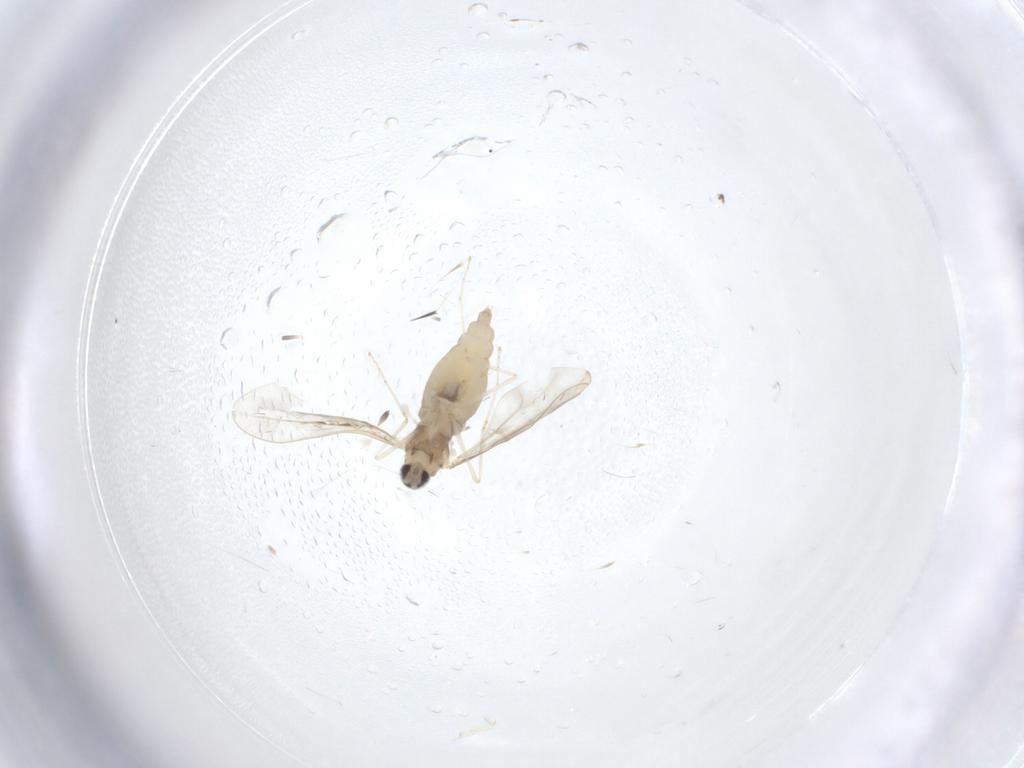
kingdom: Animalia
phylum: Arthropoda
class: Insecta
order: Diptera
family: Cecidomyiidae
